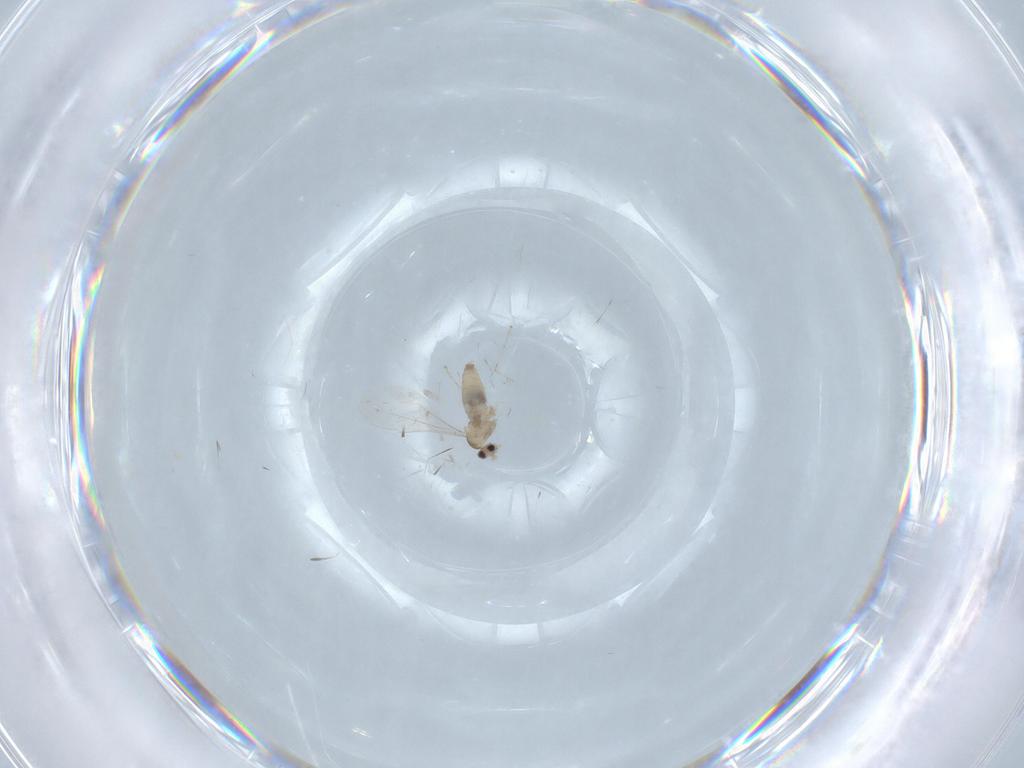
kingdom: Animalia
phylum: Arthropoda
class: Insecta
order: Diptera
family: Cecidomyiidae
